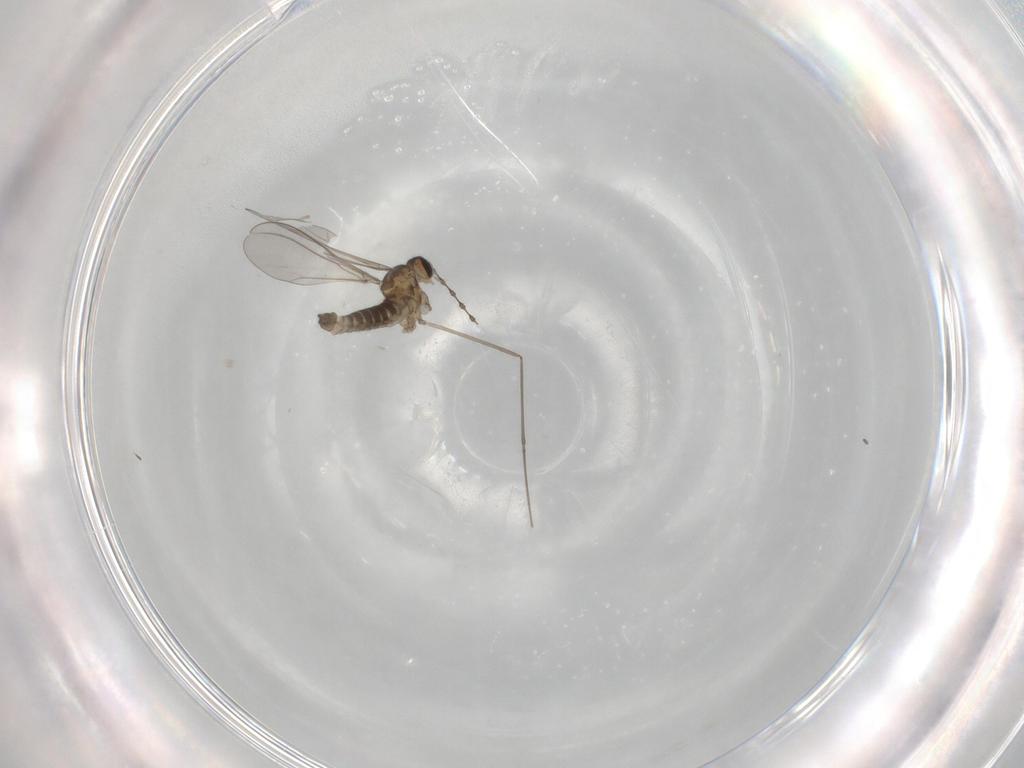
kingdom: Animalia
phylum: Arthropoda
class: Insecta
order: Diptera
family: Cecidomyiidae
